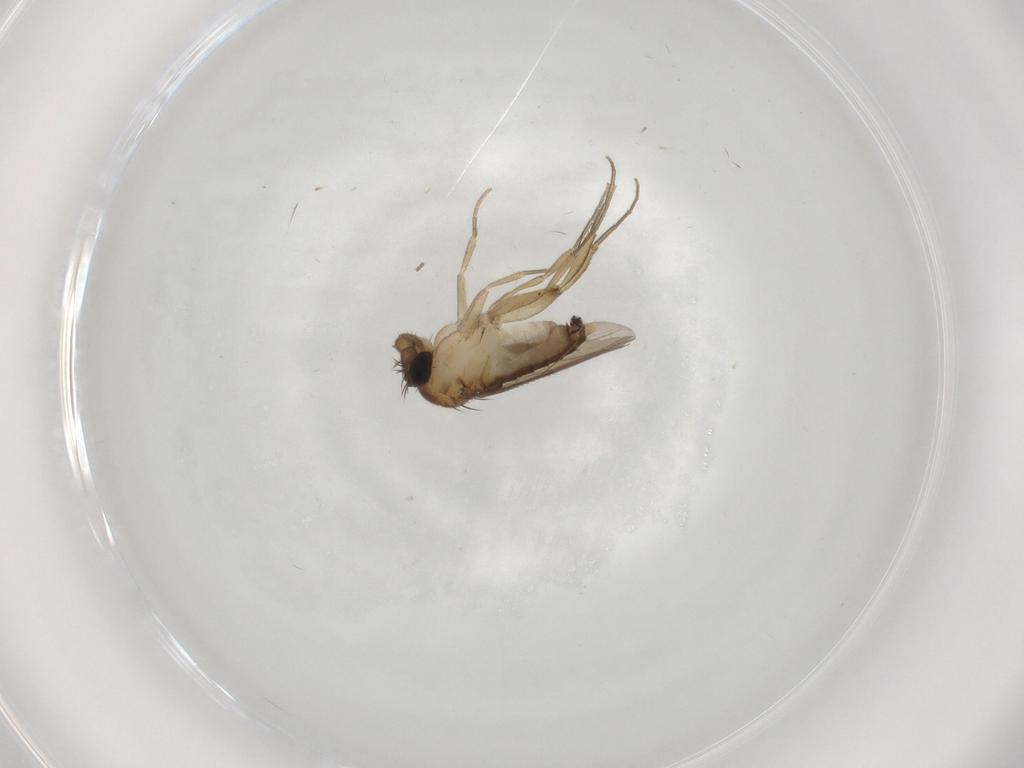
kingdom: Animalia
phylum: Arthropoda
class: Insecta
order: Diptera
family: Phoridae
